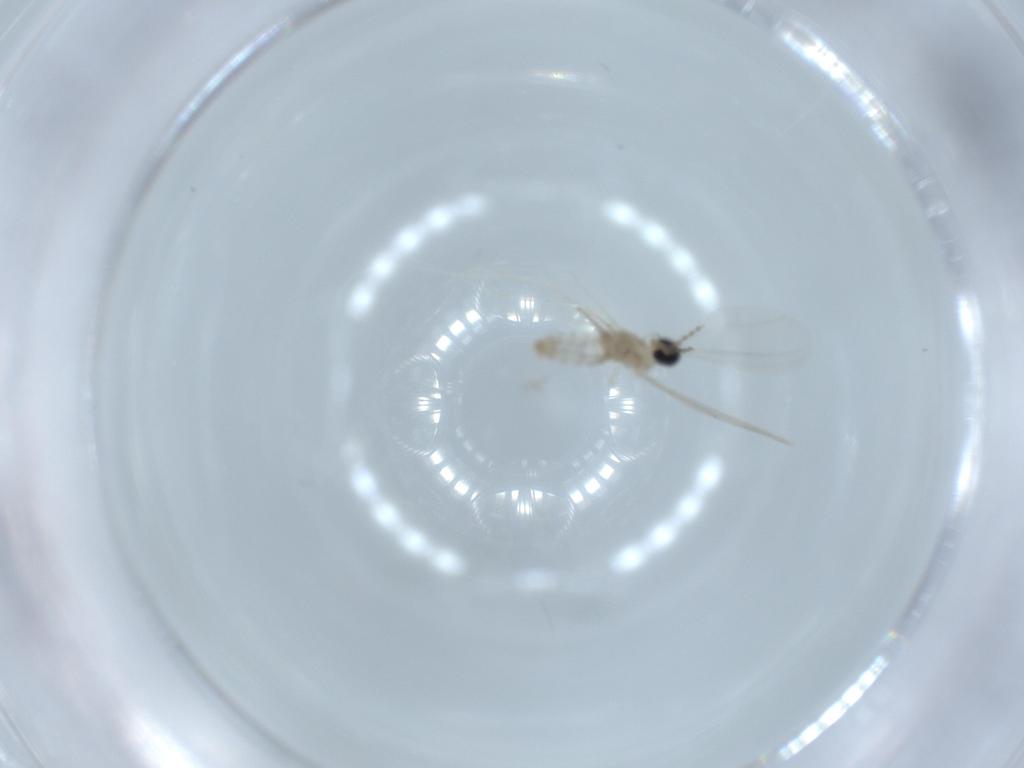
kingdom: Animalia
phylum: Arthropoda
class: Insecta
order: Diptera
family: Cecidomyiidae
